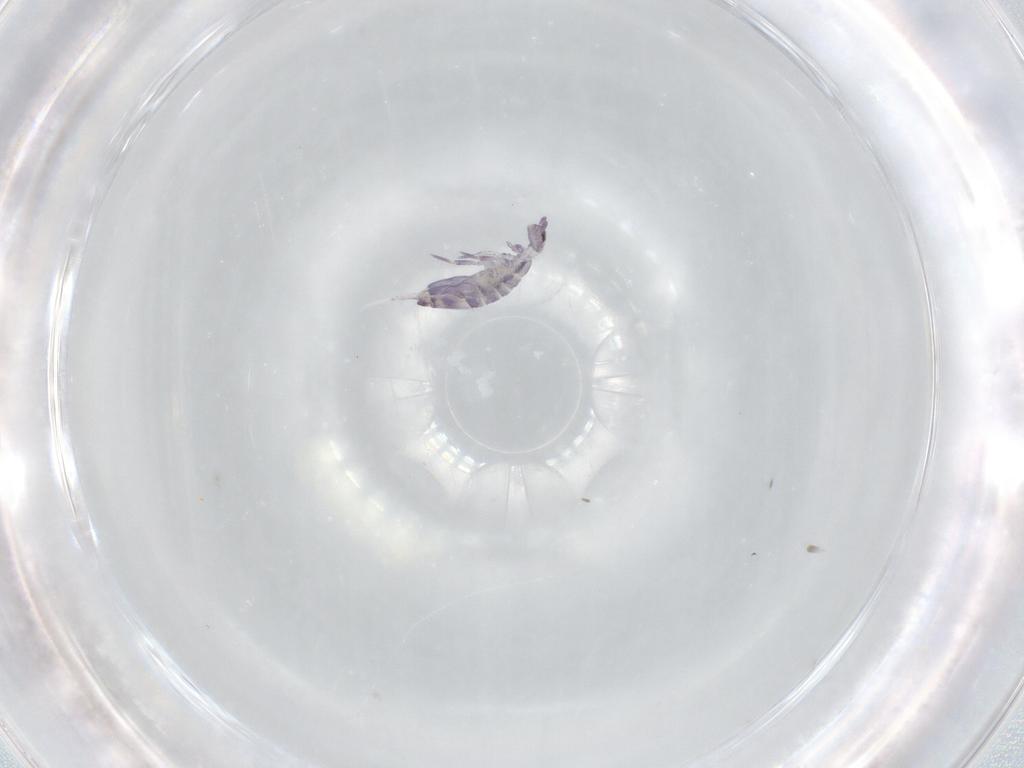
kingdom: Animalia
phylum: Arthropoda
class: Collembola
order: Entomobryomorpha
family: Entomobryidae
